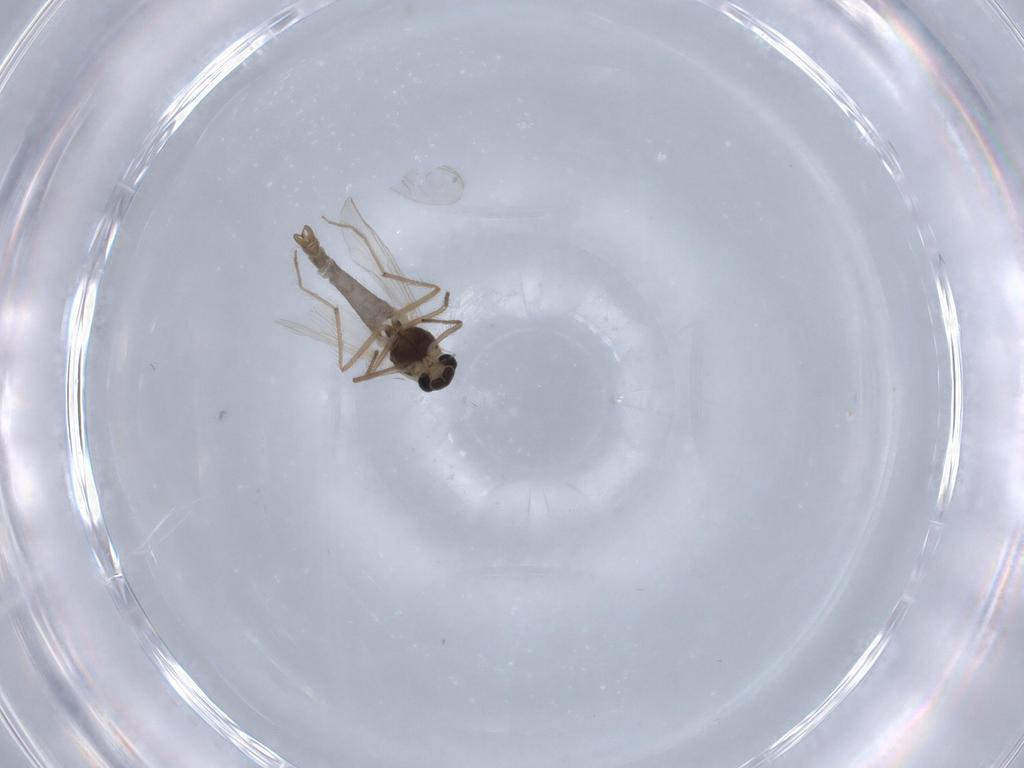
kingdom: Animalia
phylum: Arthropoda
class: Insecta
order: Diptera
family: Chironomidae
